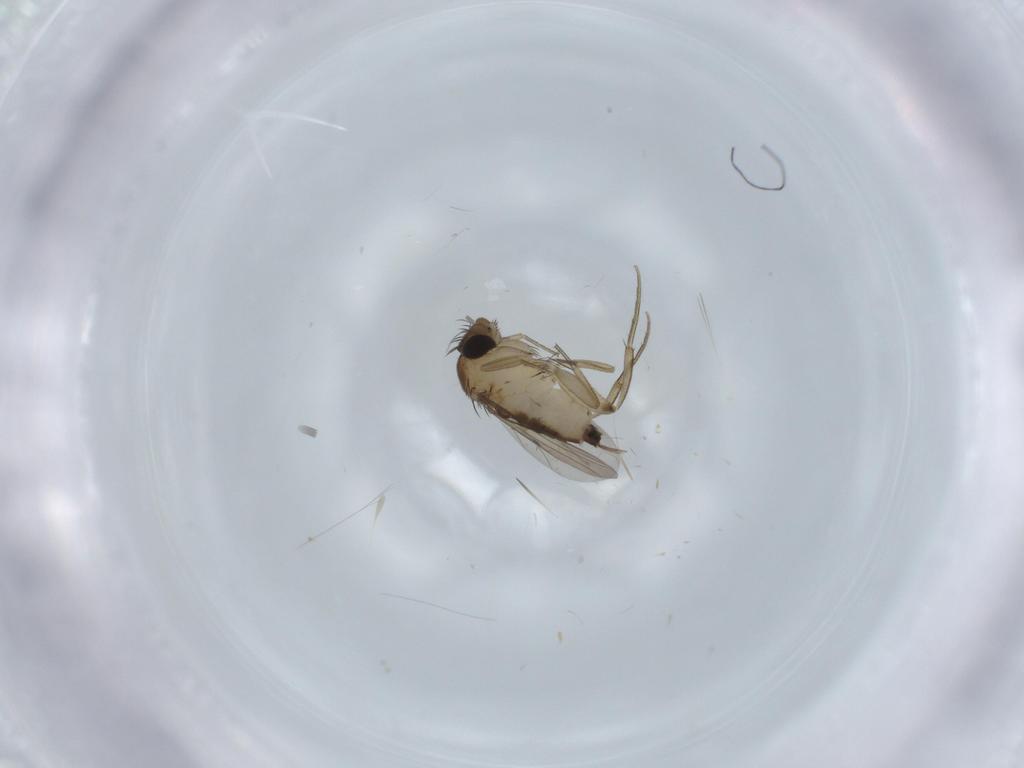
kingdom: Animalia
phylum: Arthropoda
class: Insecta
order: Diptera
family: Phoridae
